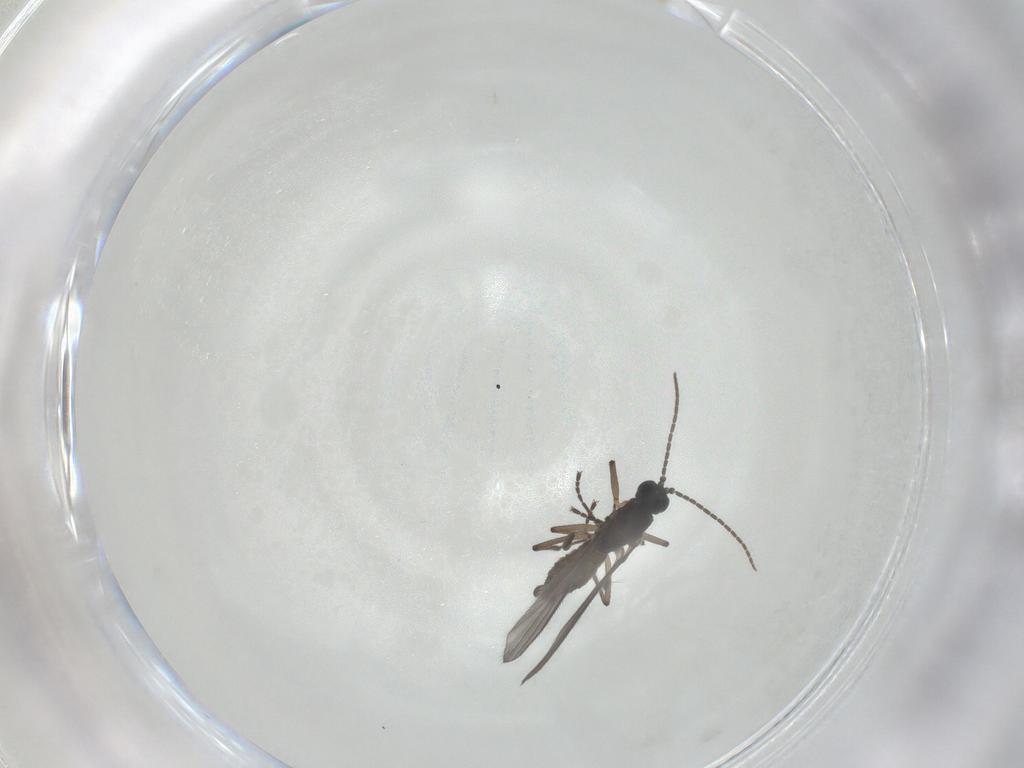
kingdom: Animalia
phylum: Arthropoda
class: Insecta
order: Diptera
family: Sciaridae
